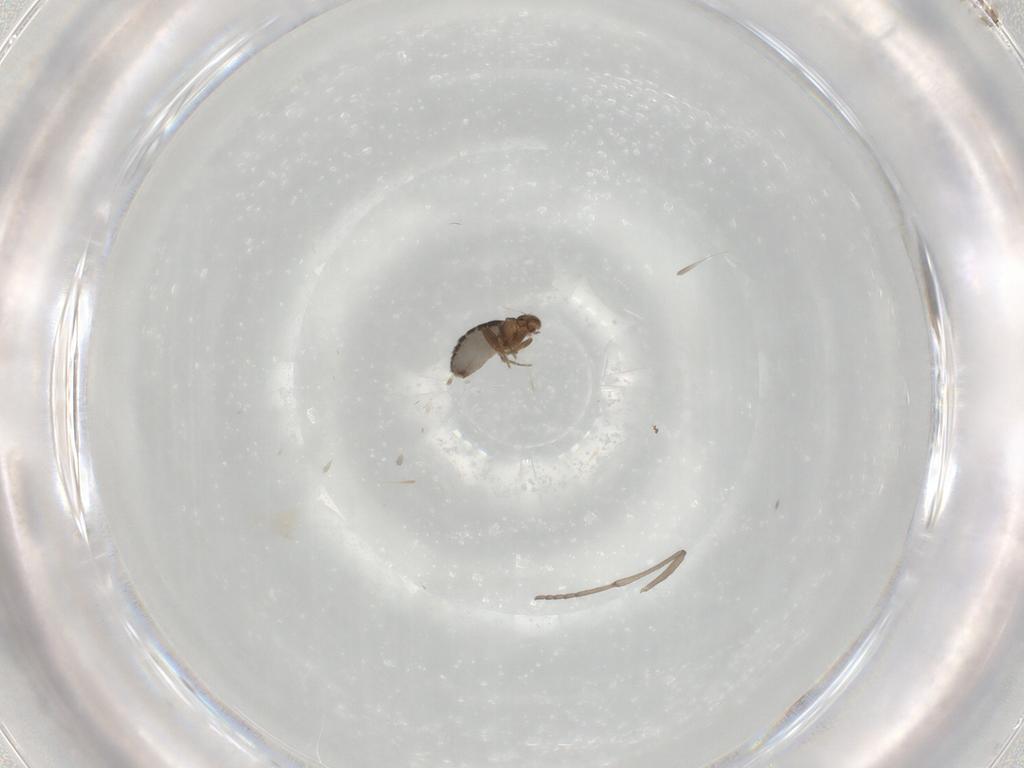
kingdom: Animalia
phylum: Arthropoda
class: Insecta
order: Diptera
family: Psychodidae
